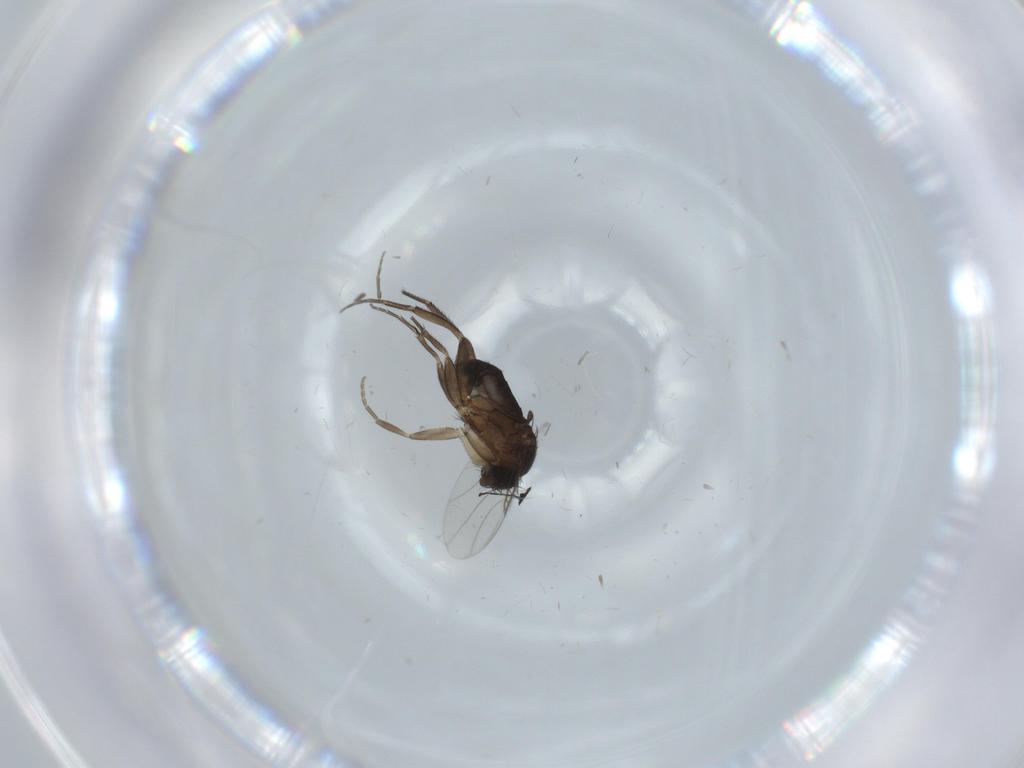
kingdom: Animalia
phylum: Arthropoda
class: Insecta
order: Diptera
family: Phoridae
